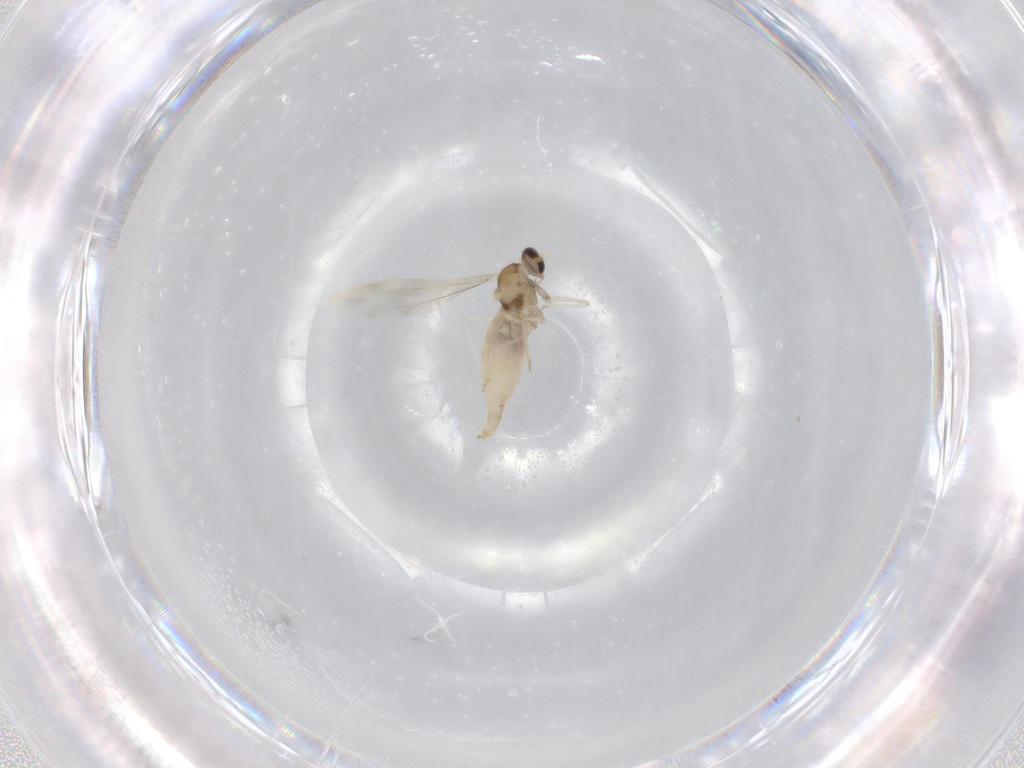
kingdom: Animalia
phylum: Arthropoda
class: Insecta
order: Diptera
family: Cecidomyiidae
